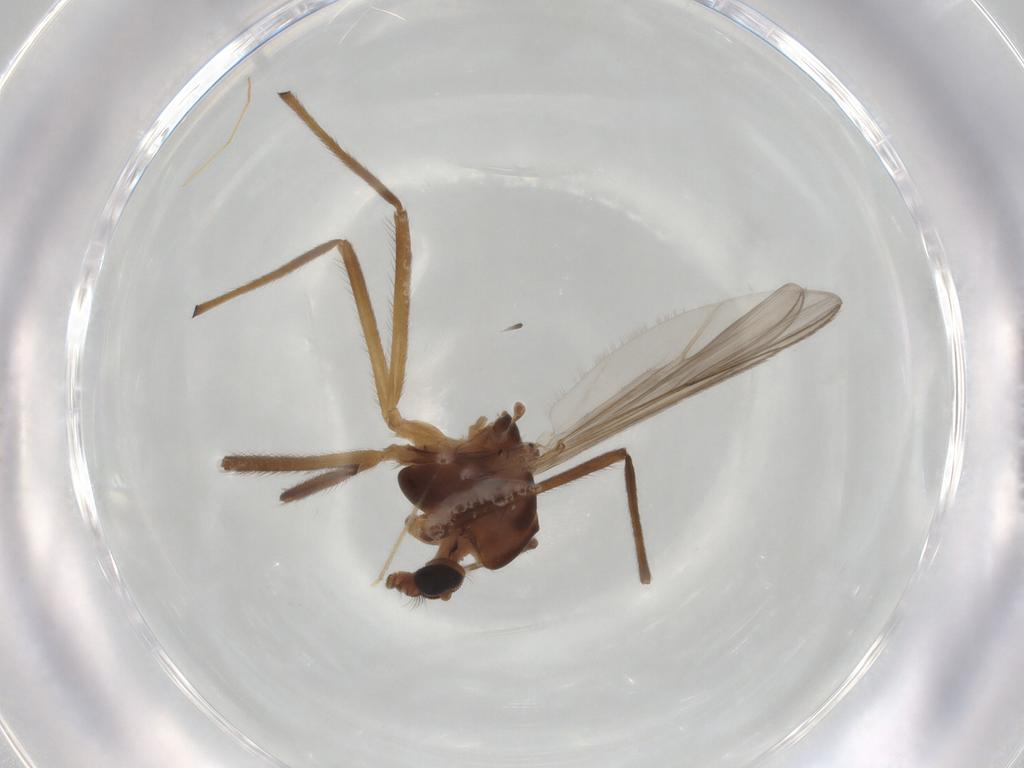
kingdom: Animalia
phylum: Arthropoda
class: Insecta
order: Diptera
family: Chironomidae
